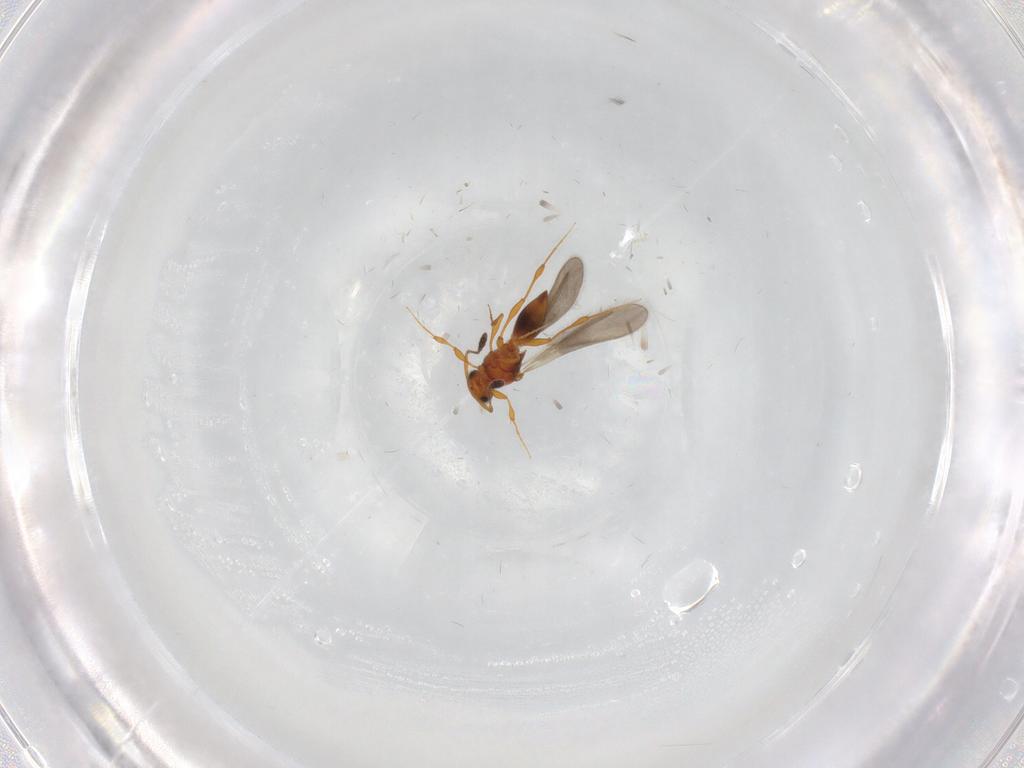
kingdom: Animalia
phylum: Arthropoda
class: Insecta
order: Hymenoptera
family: Platygastridae
